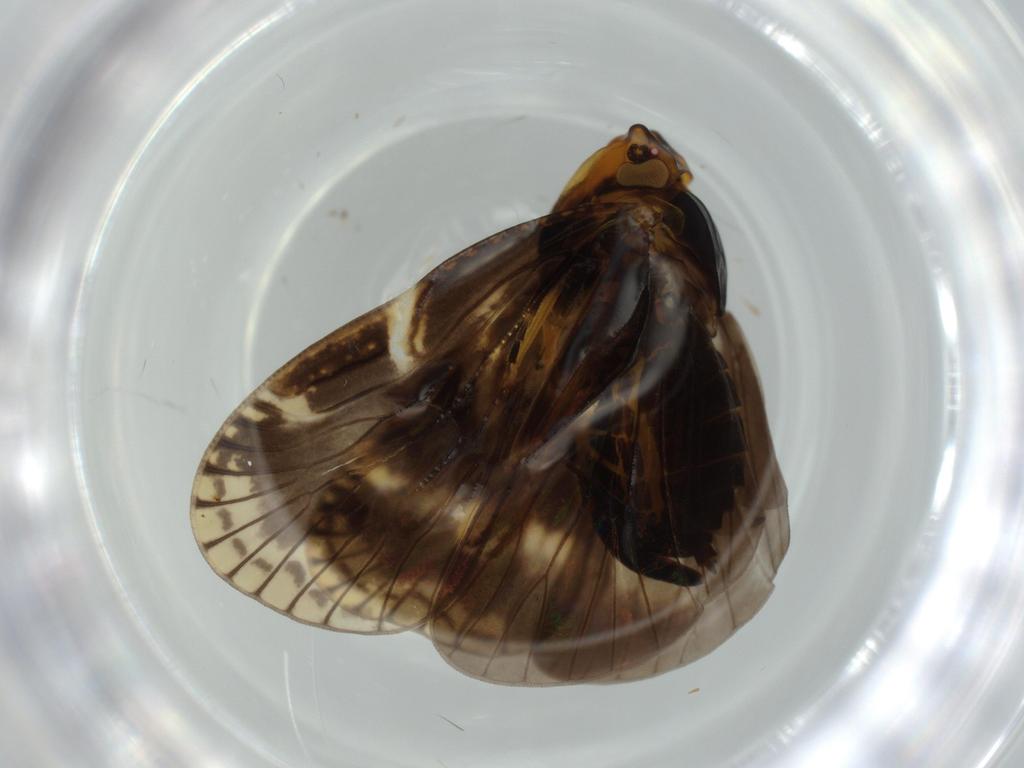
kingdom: Animalia
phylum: Arthropoda
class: Insecta
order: Hemiptera
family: Cixiidae
